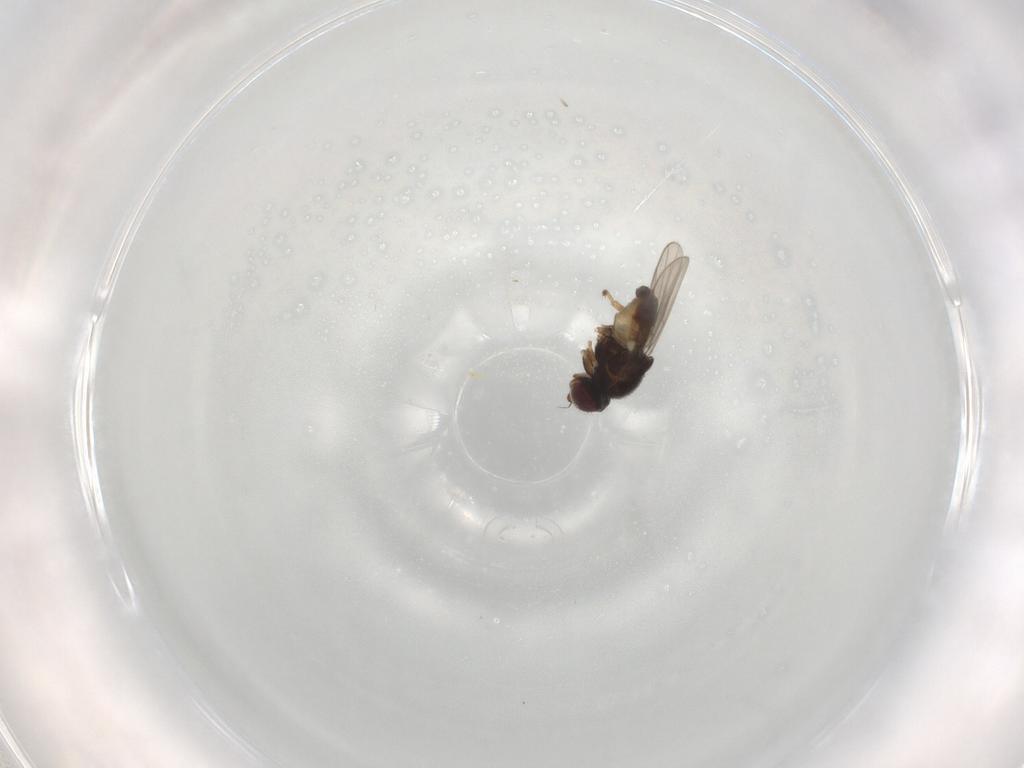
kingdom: Animalia
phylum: Arthropoda
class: Insecta
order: Diptera
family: Chloropidae
